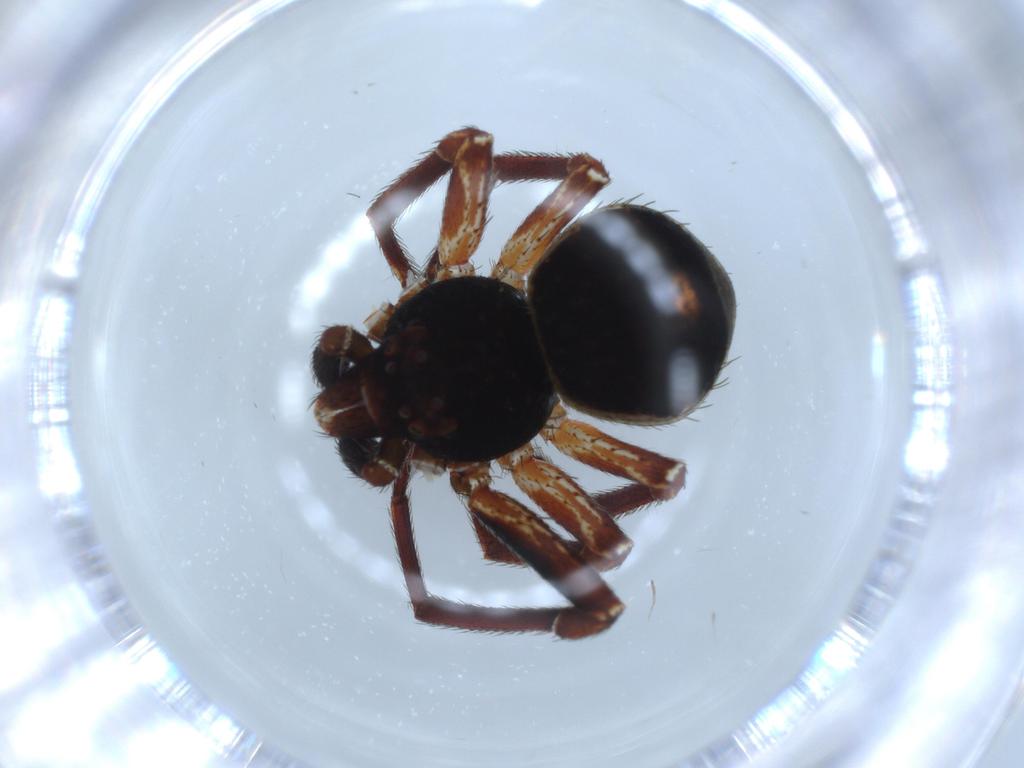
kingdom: Animalia
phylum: Arthropoda
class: Arachnida
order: Araneae
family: Thomisidae
